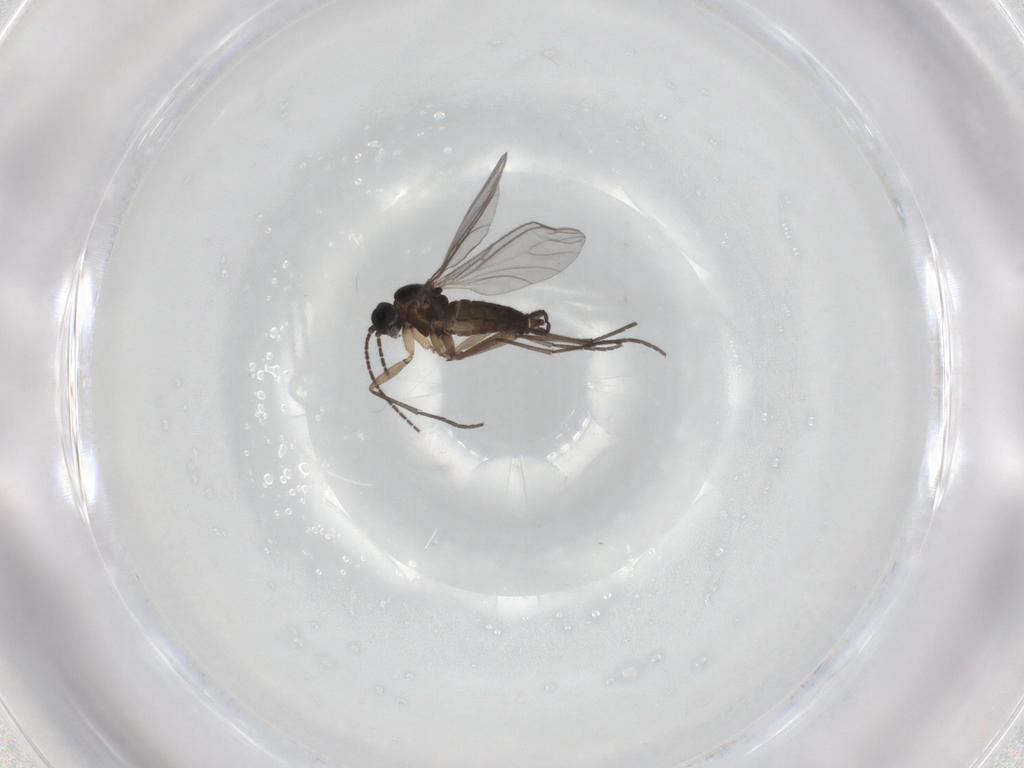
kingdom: Animalia
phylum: Arthropoda
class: Insecta
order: Diptera
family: Sciaridae
